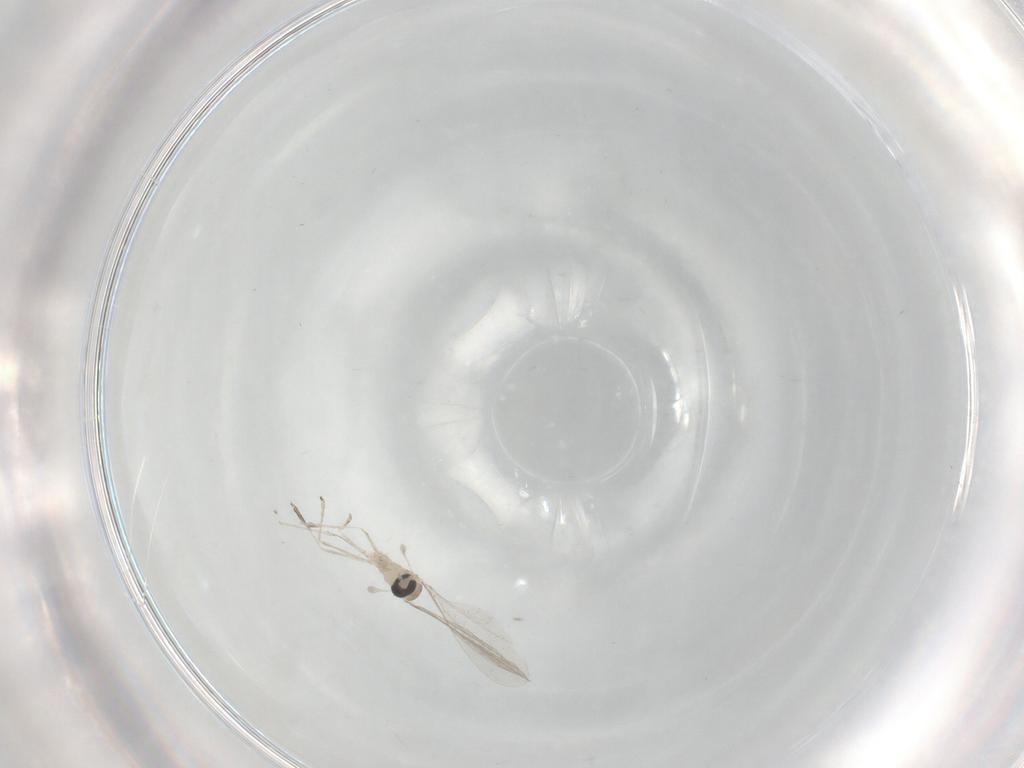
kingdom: Animalia
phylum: Arthropoda
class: Insecta
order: Diptera
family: Cecidomyiidae
